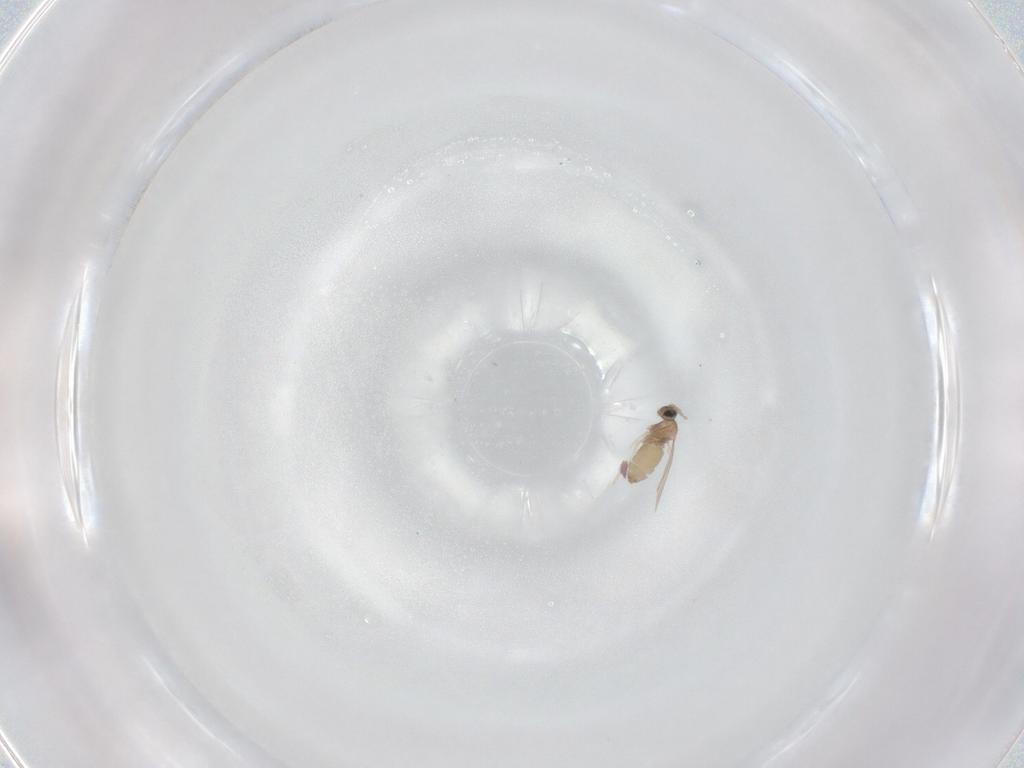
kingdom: Animalia
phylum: Arthropoda
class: Insecta
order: Diptera
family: Cecidomyiidae
